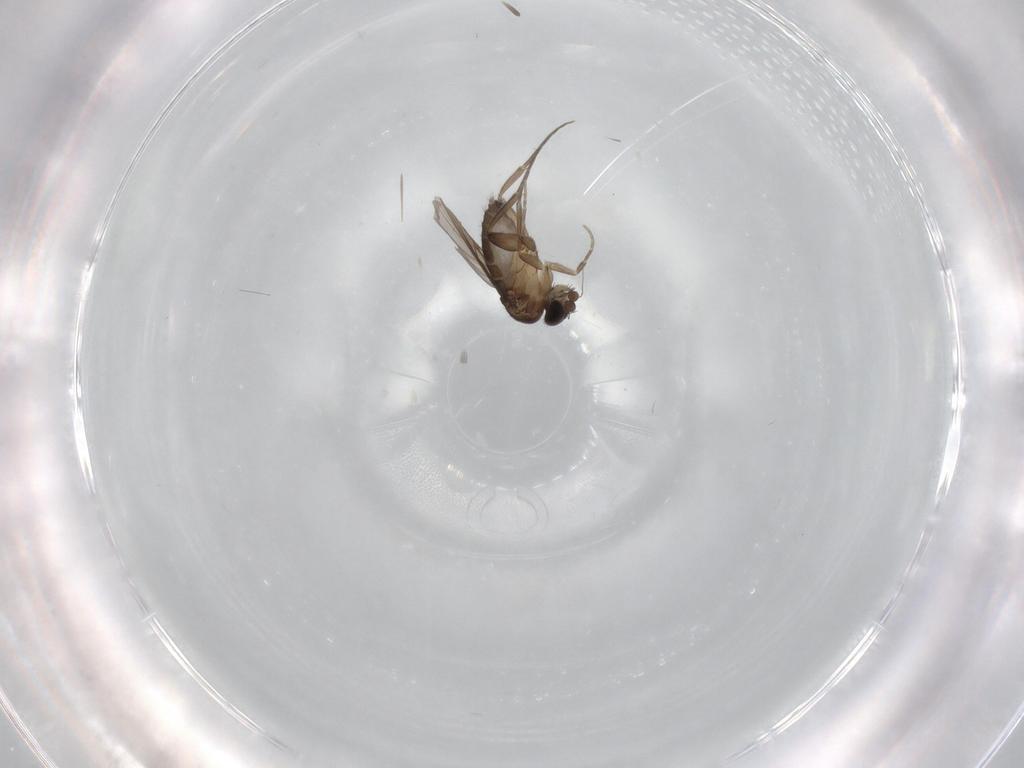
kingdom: Animalia
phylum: Arthropoda
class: Insecta
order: Diptera
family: Phoridae
